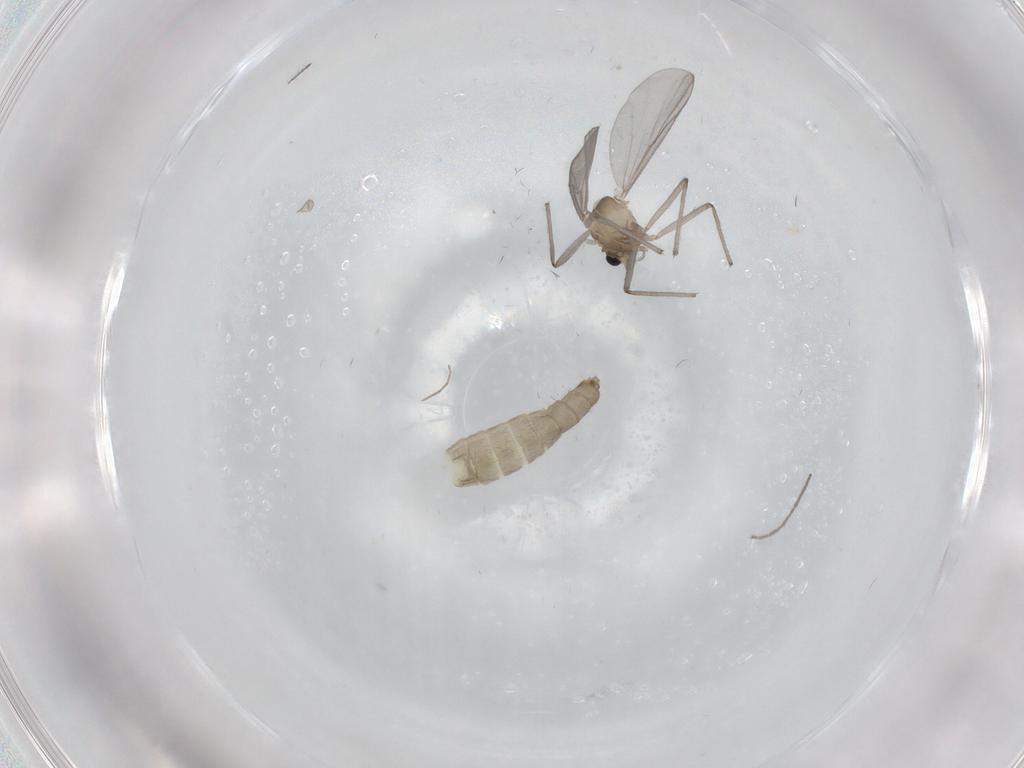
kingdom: Animalia
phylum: Arthropoda
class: Insecta
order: Diptera
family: Chironomidae
